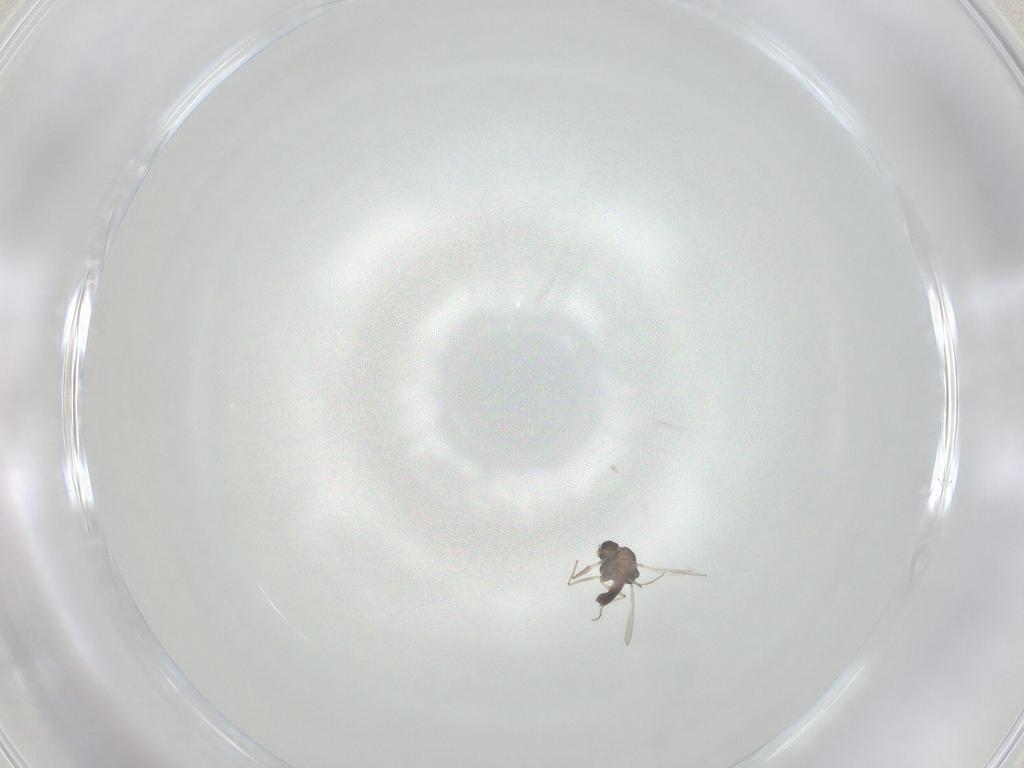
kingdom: Animalia
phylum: Arthropoda
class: Insecta
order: Diptera
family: Chironomidae
